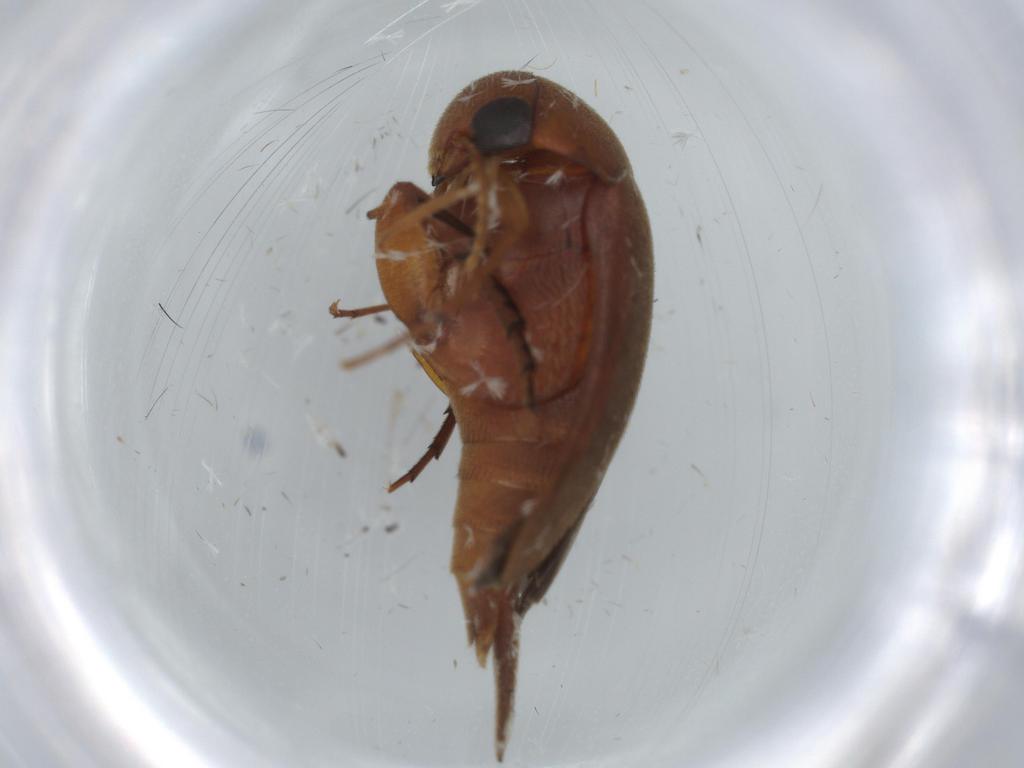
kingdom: Animalia
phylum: Arthropoda
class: Insecta
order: Coleoptera
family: Mordellidae
